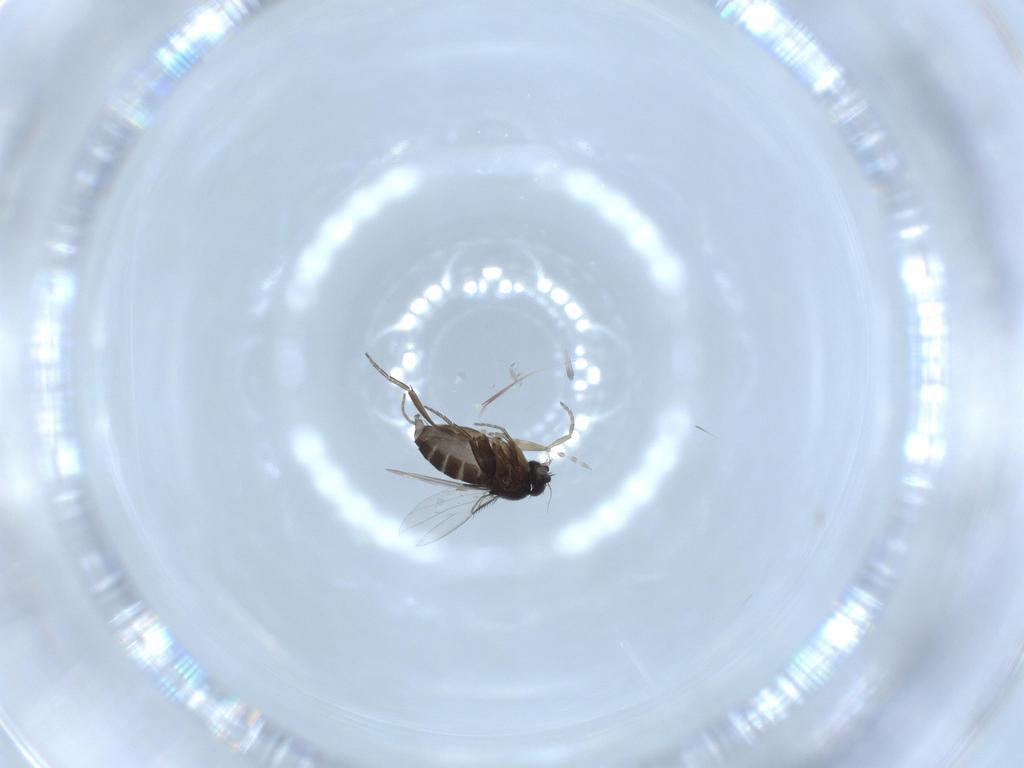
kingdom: Animalia
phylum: Arthropoda
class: Insecta
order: Diptera
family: Phoridae
